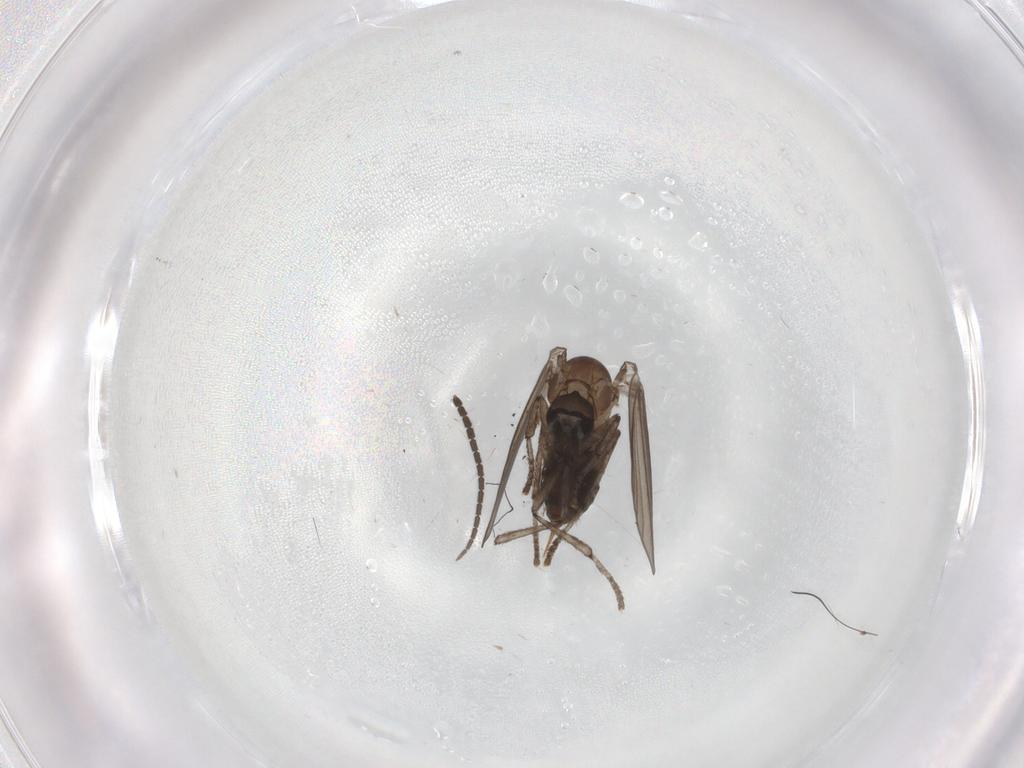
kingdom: Animalia
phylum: Arthropoda
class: Insecta
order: Diptera
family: Psychodidae
